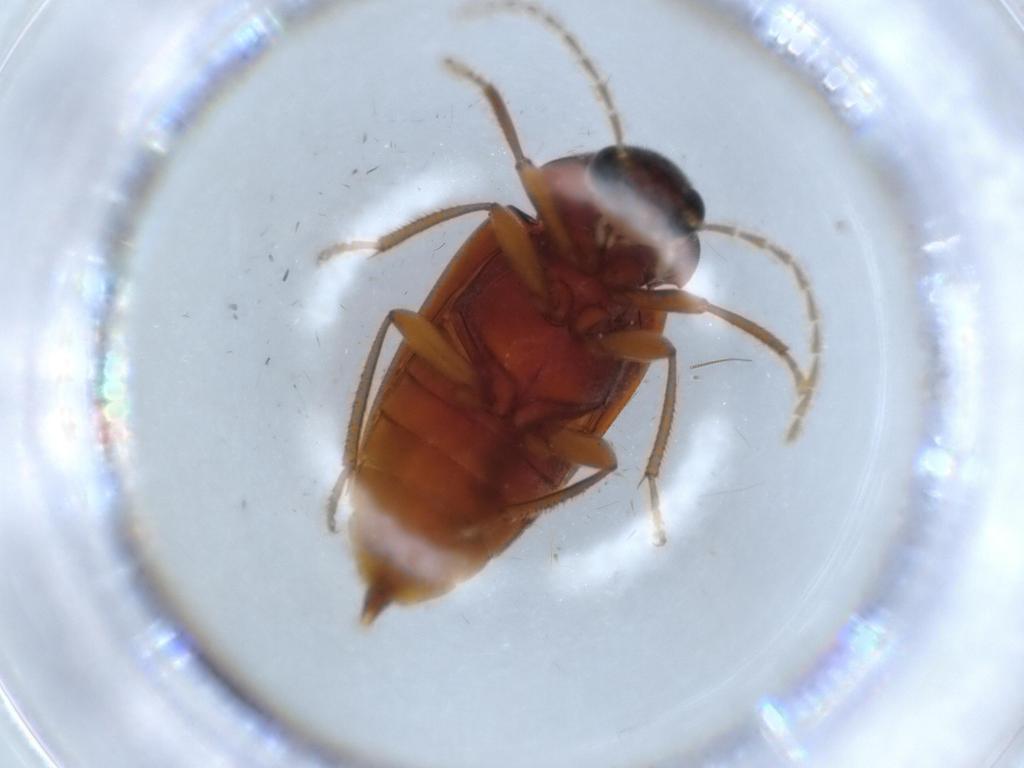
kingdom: Animalia
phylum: Arthropoda
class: Insecta
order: Coleoptera
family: Ptilodactylidae
